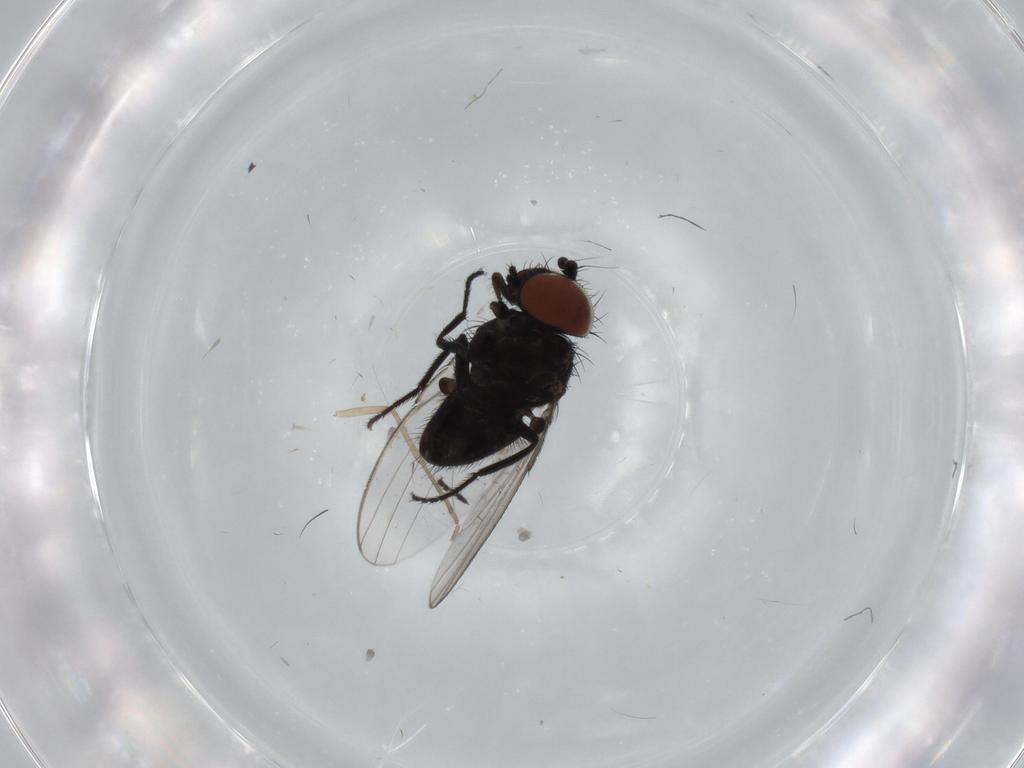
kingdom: Animalia
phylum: Arthropoda
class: Insecta
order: Diptera
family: Milichiidae
